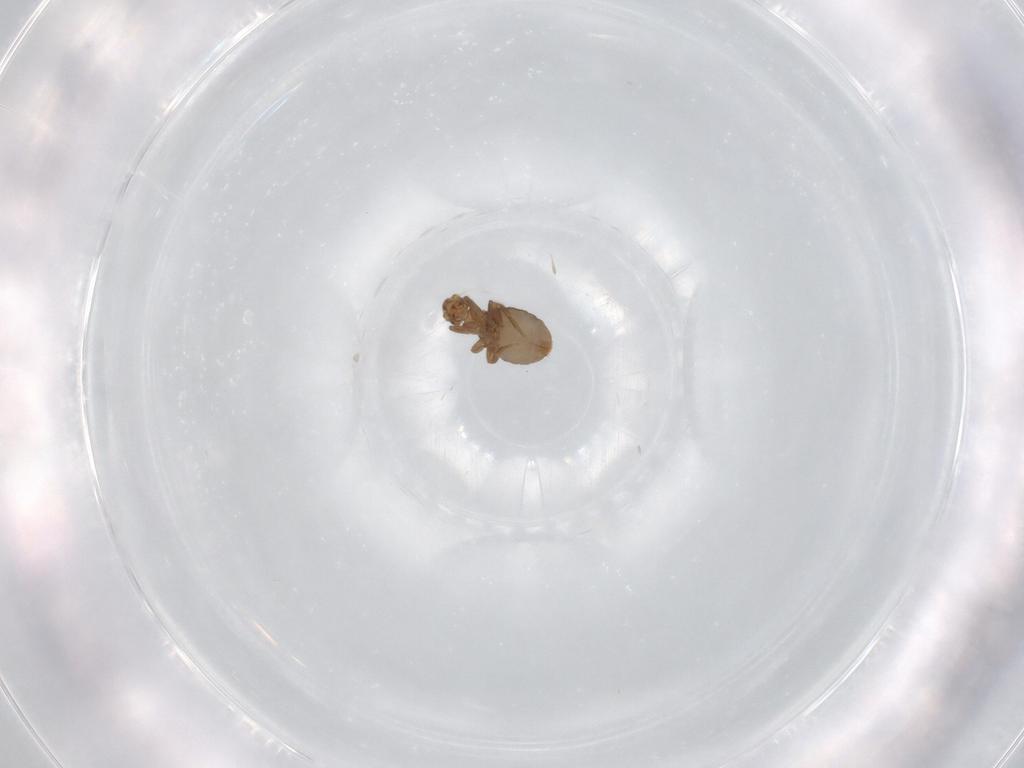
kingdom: Animalia
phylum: Arthropoda
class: Insecta
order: Diptera
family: Phoridae
